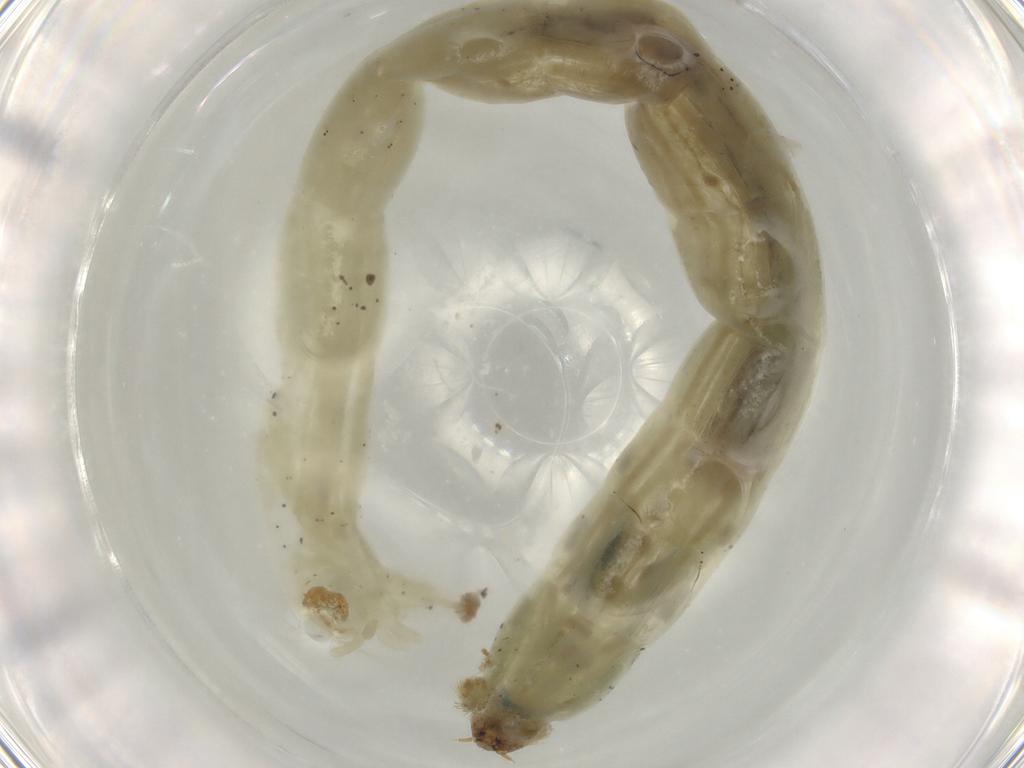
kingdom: Animalia
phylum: Arthropoda
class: Insecta
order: Diptera
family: Chironomidae
